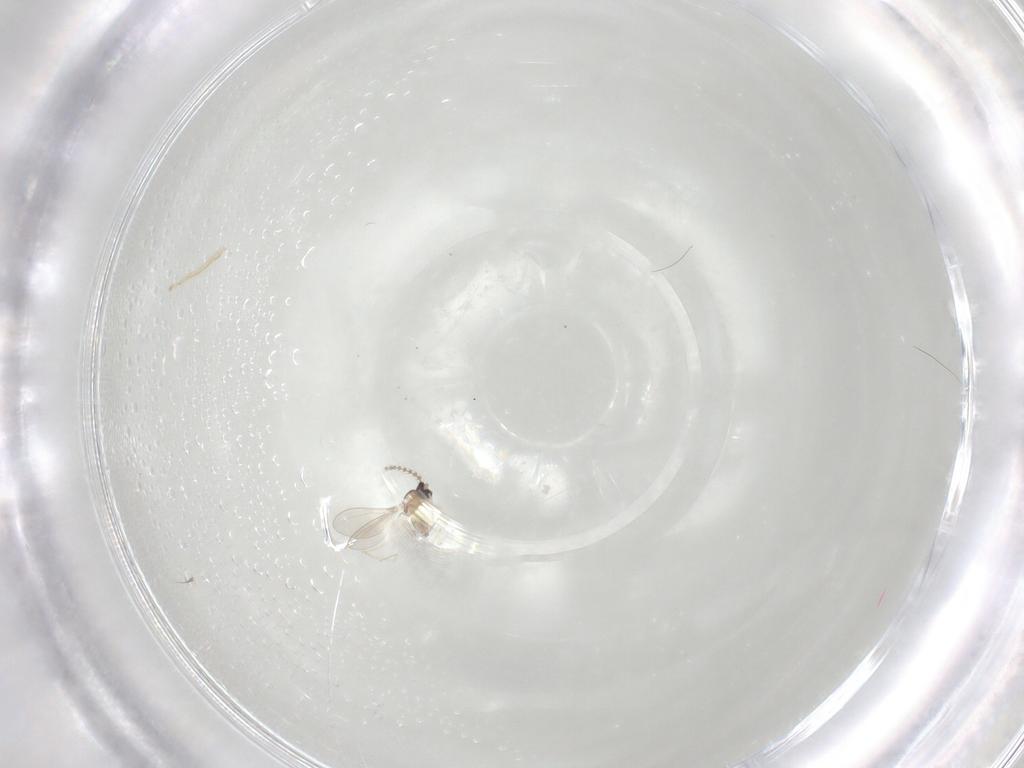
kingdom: Animalia
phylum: Arthropoda
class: Insecta
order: Diptera
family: Cecidomyiidae
